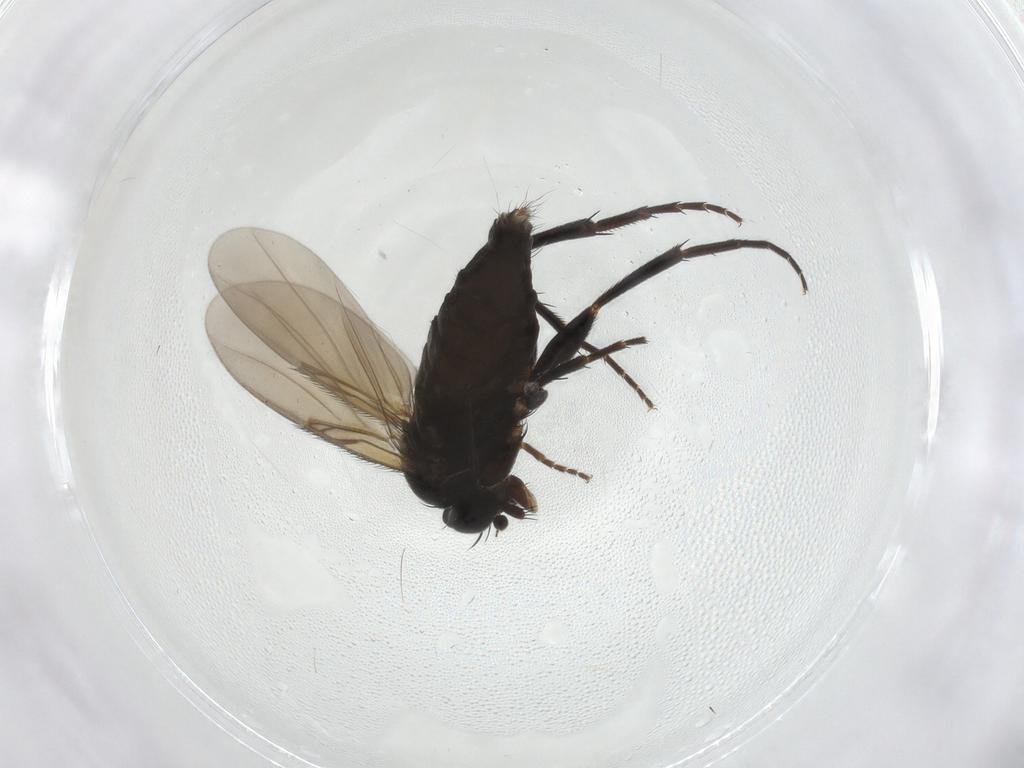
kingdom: Animalia
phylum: Arthropoda
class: Insecta
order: Diptera
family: Phoridae
